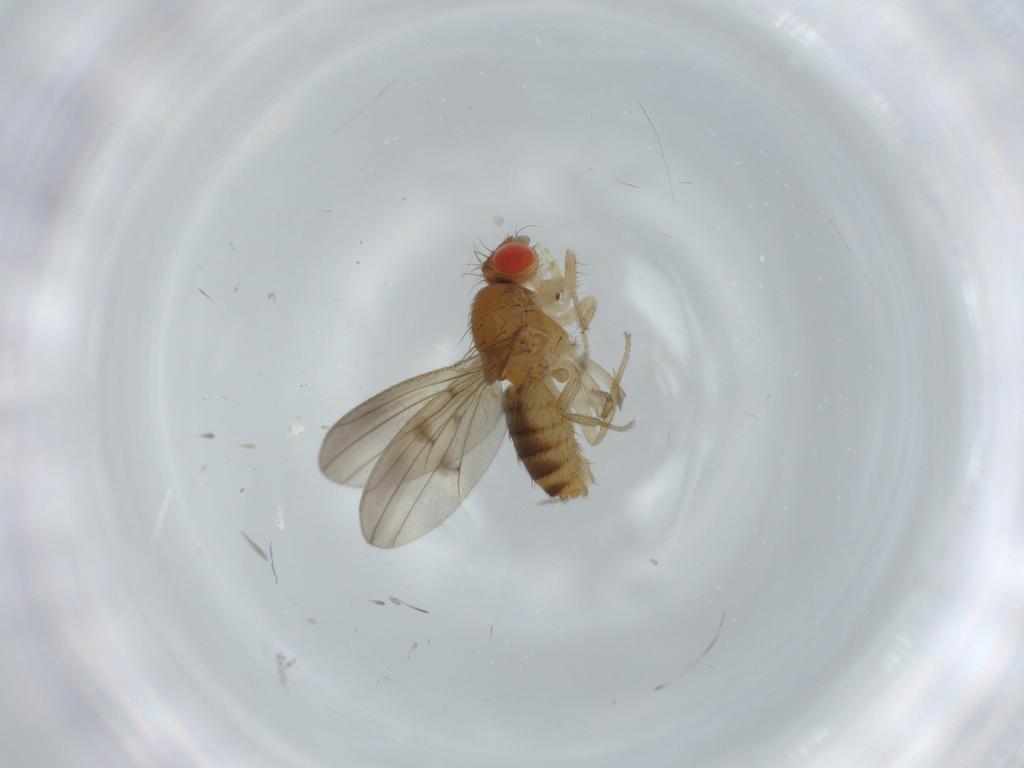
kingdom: Animalia
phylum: Arthropoda
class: Insecta
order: Diptera
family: Drosophilidae
